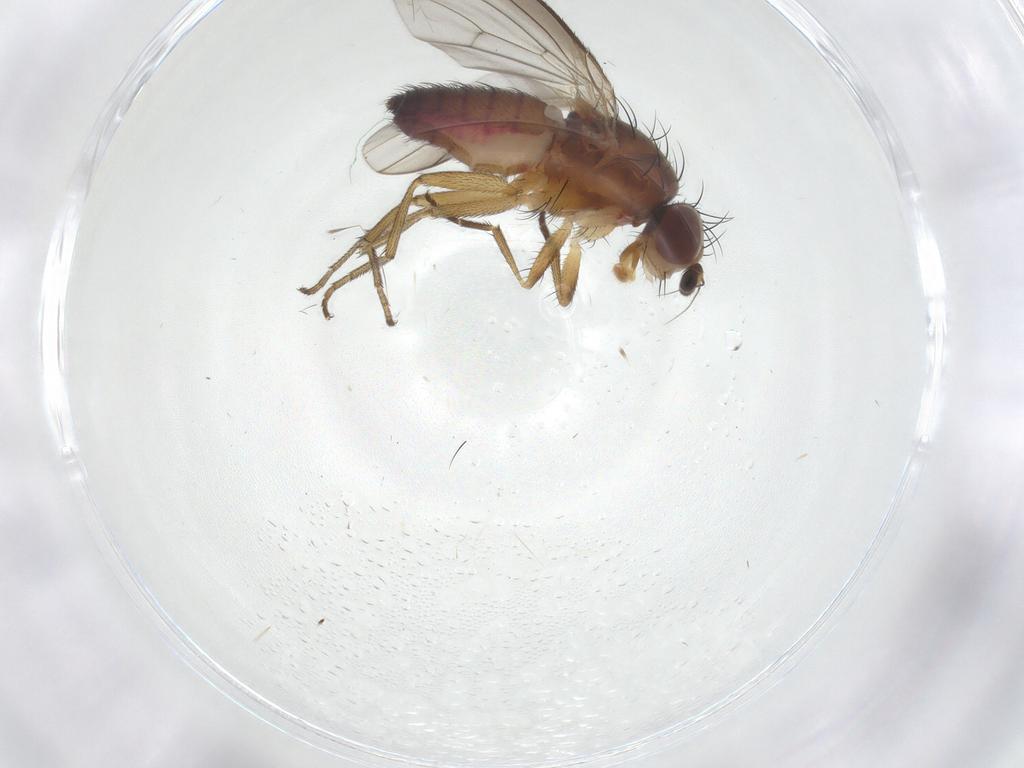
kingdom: Animalia
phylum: Arthropoda
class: Insecta
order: Diptera
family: Heleomyzidae
